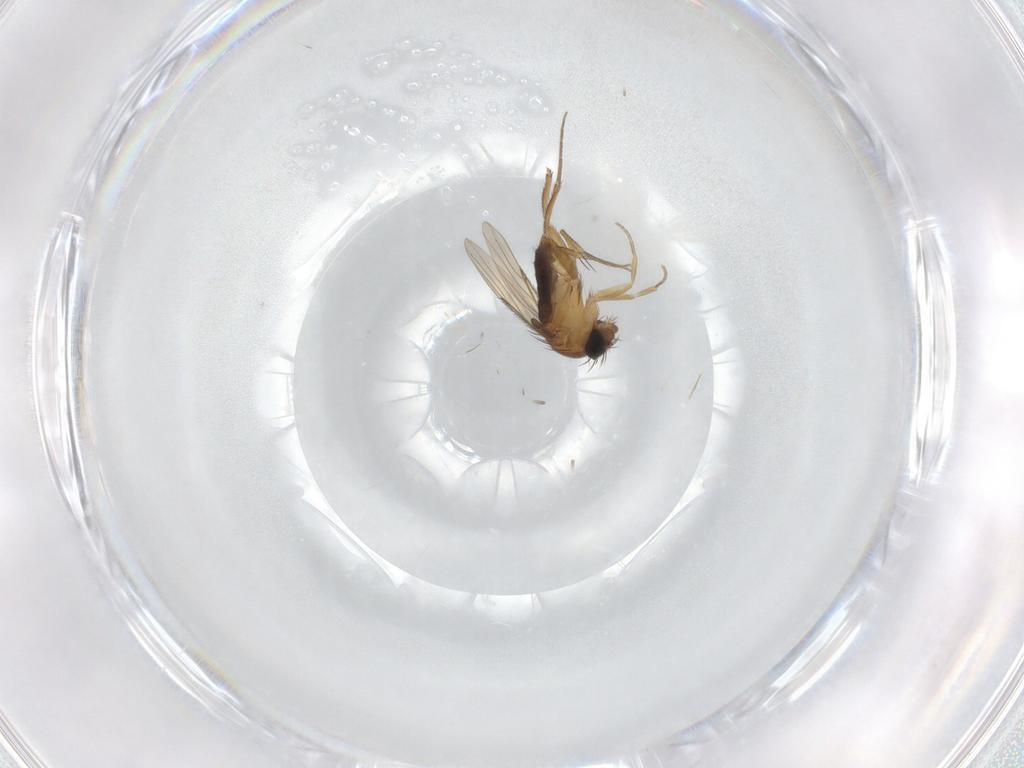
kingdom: Animalia
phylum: Arthropoda
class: Insecta
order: Diptera
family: Phoridae
